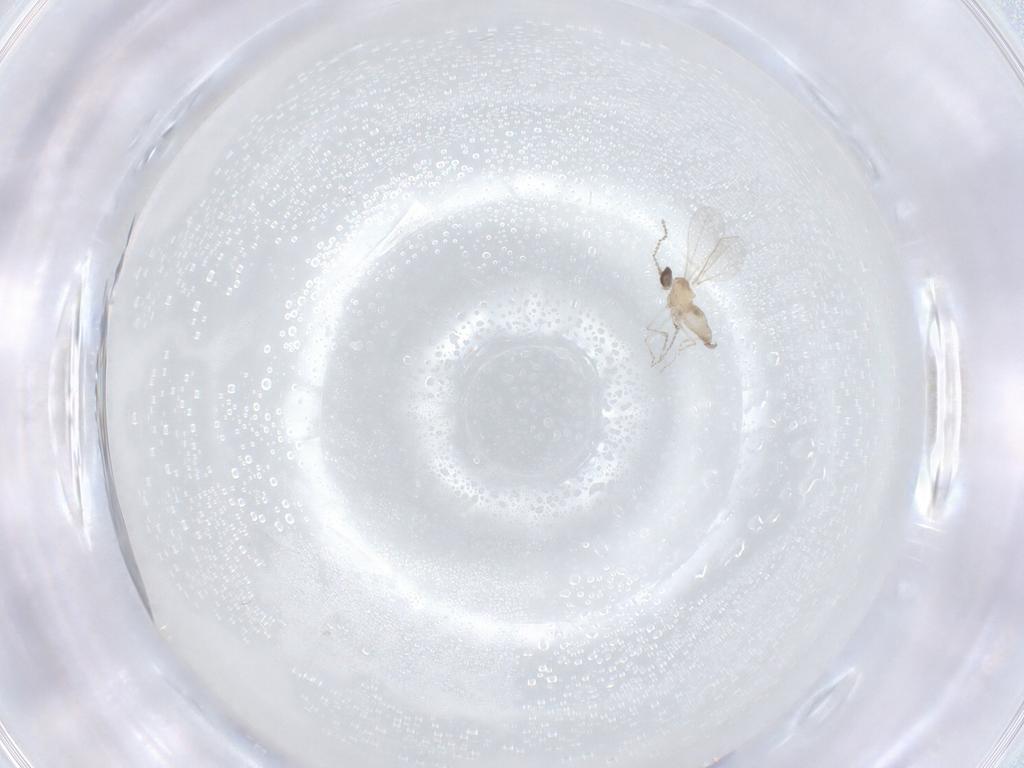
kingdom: Animalia
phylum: Arthropoda
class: Insecta
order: Diptera
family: Cecidomyiidae
